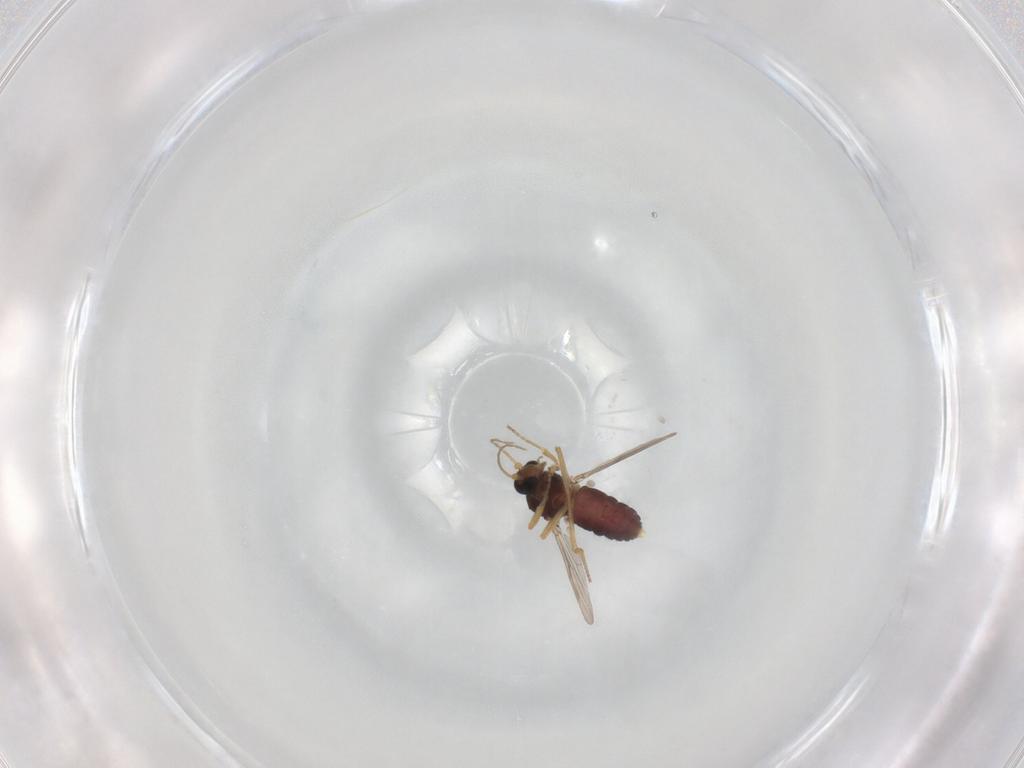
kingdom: Animalia
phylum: Arthropoda
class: Insecta
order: Diptera
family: Ceratopogonidae
